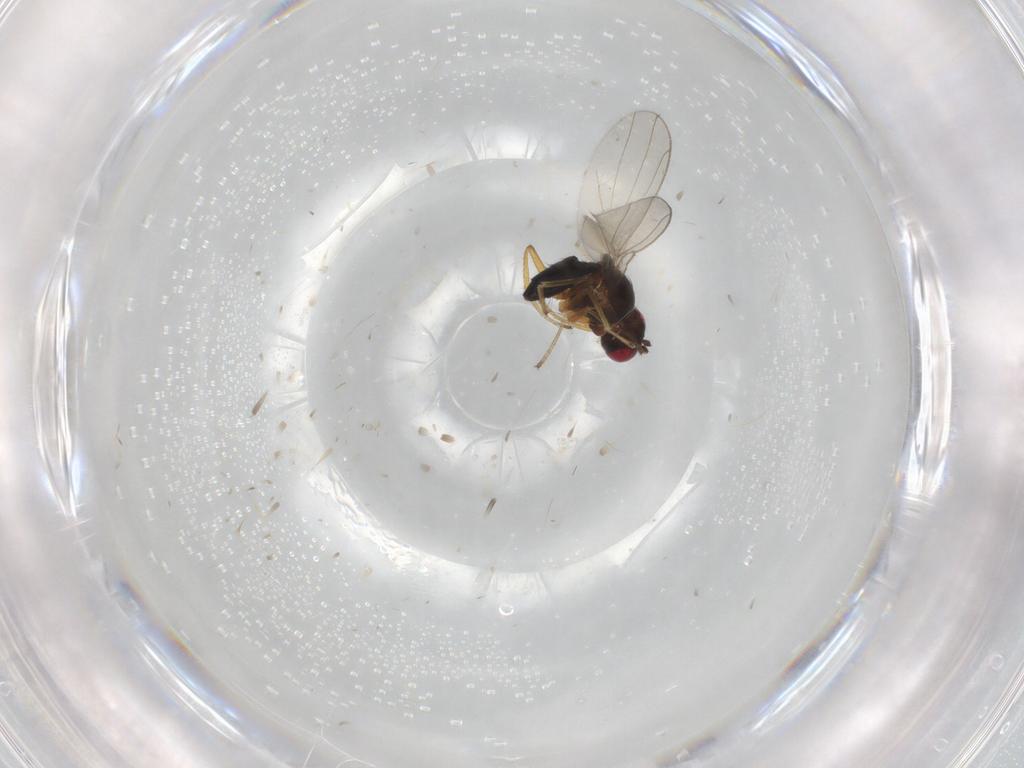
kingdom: Animalia
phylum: Arthropoda
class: Insecta
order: Diptera
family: Ephydridae
